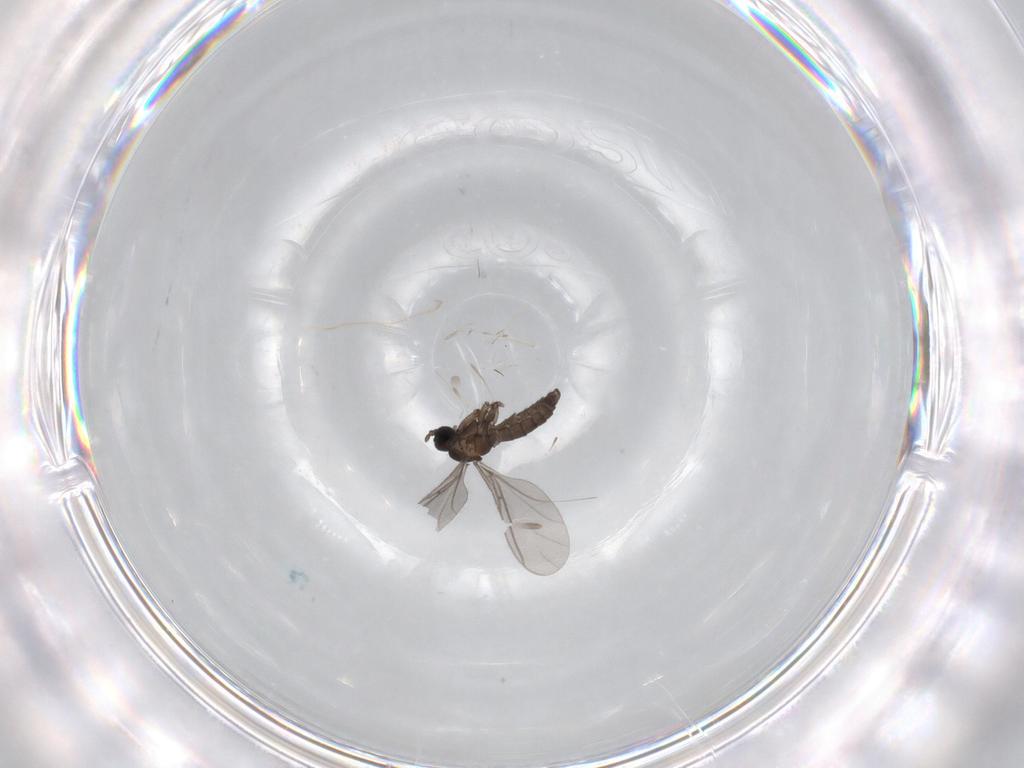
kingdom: Animalia
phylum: Arthropoda
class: Insecta
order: Diptera
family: Sciaridae
